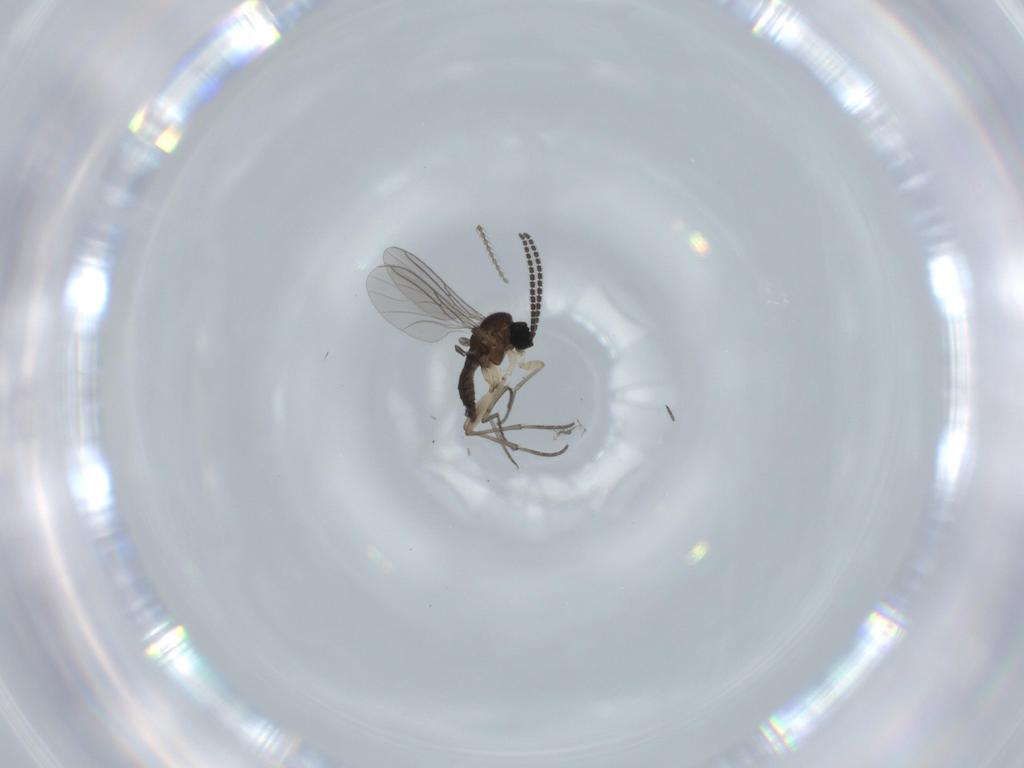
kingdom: Animalia
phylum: Arthropoda
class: Insecta
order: Diptera
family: Sciaridae
